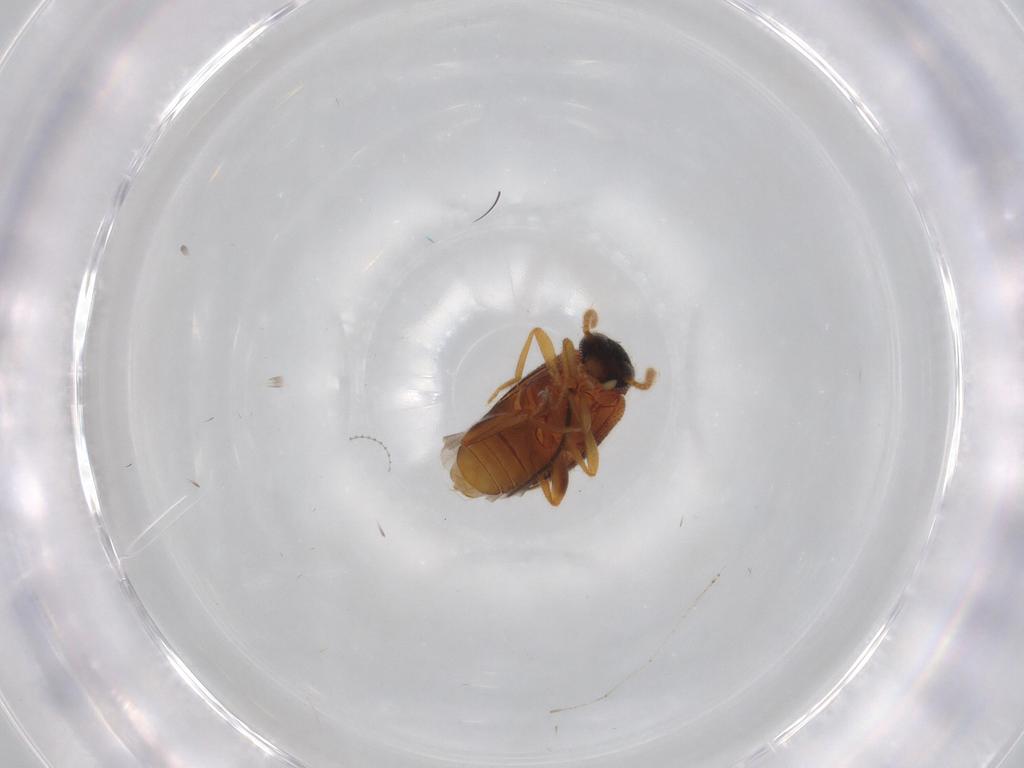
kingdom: Animalia
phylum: Arthropoda
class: Insecta
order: Coleoptera
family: Aderidae
